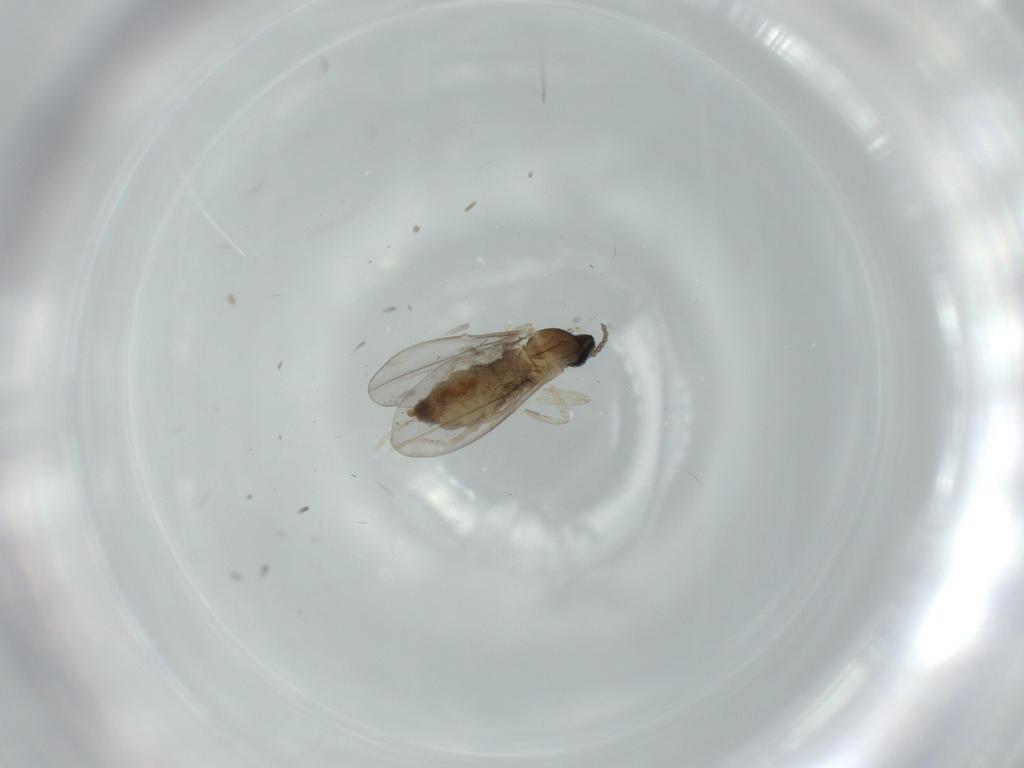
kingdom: Animalia
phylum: Arthropoda
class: Insecta
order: Diptera
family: Cecidomyiidae
